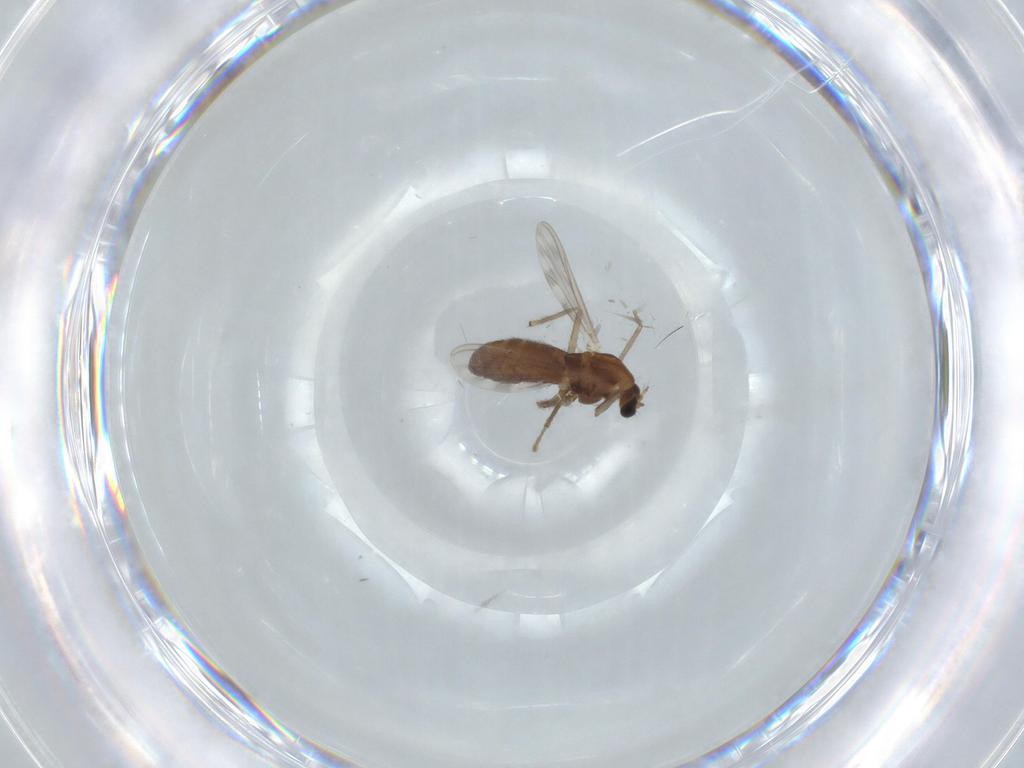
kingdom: Animalia
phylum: Arthropoda
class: Insecta
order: Diptera
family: Chironomidae
